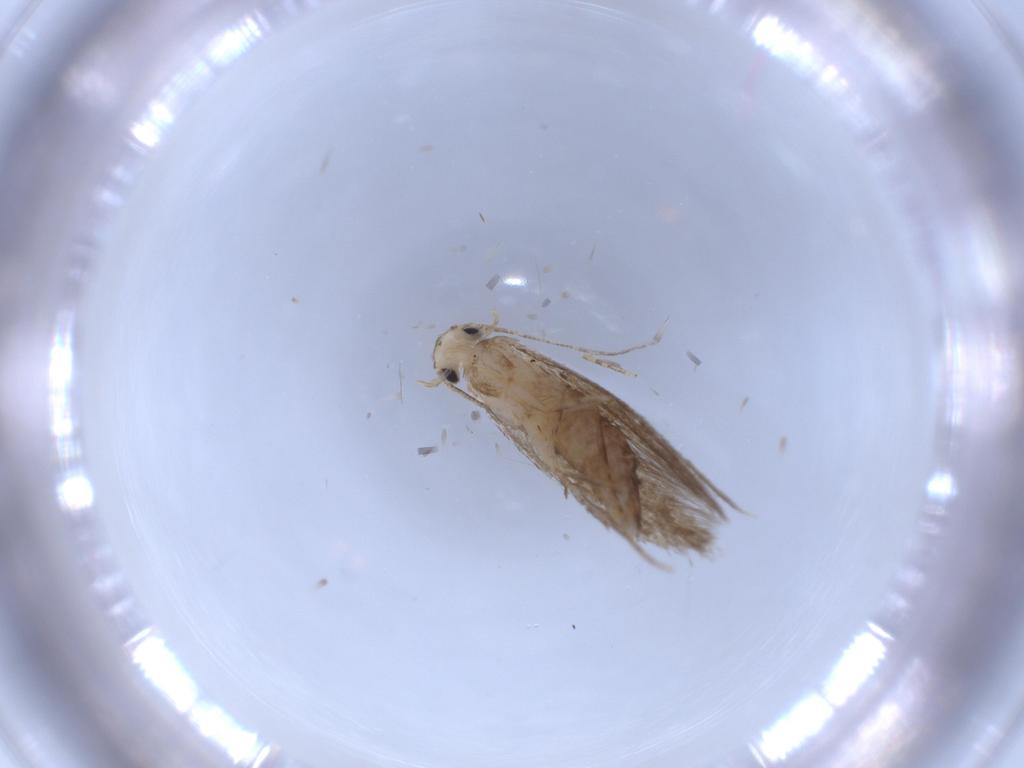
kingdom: Animalia
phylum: Arthropoda
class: Insecta
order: Lepidoptera
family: Tineidae
